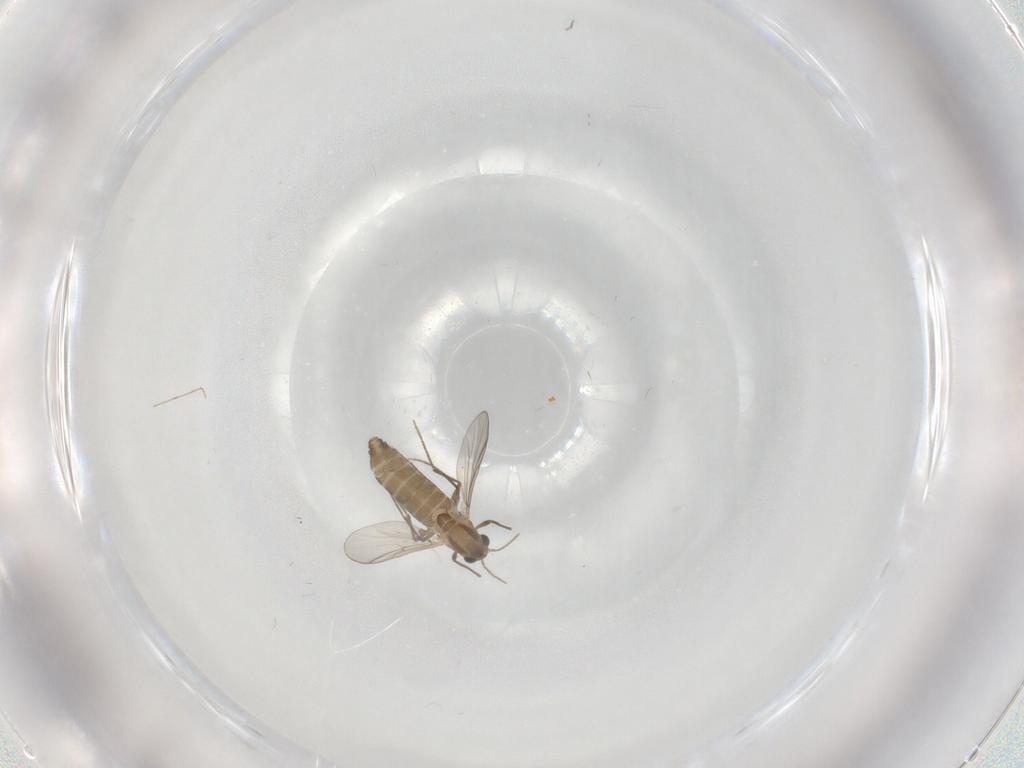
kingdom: Animalia
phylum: Arthropoda
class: Insecta
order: Diptera
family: Chironomidae
